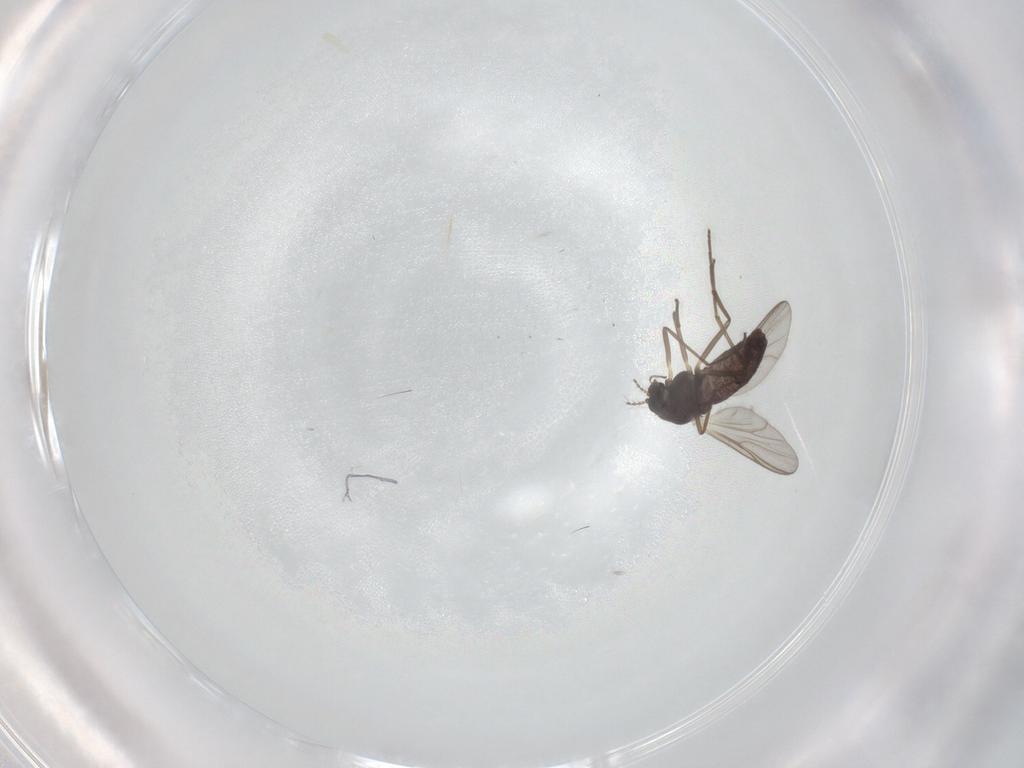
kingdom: Animalia
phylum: Arthropoda
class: Insecta
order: Diptera
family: Chironomidae
